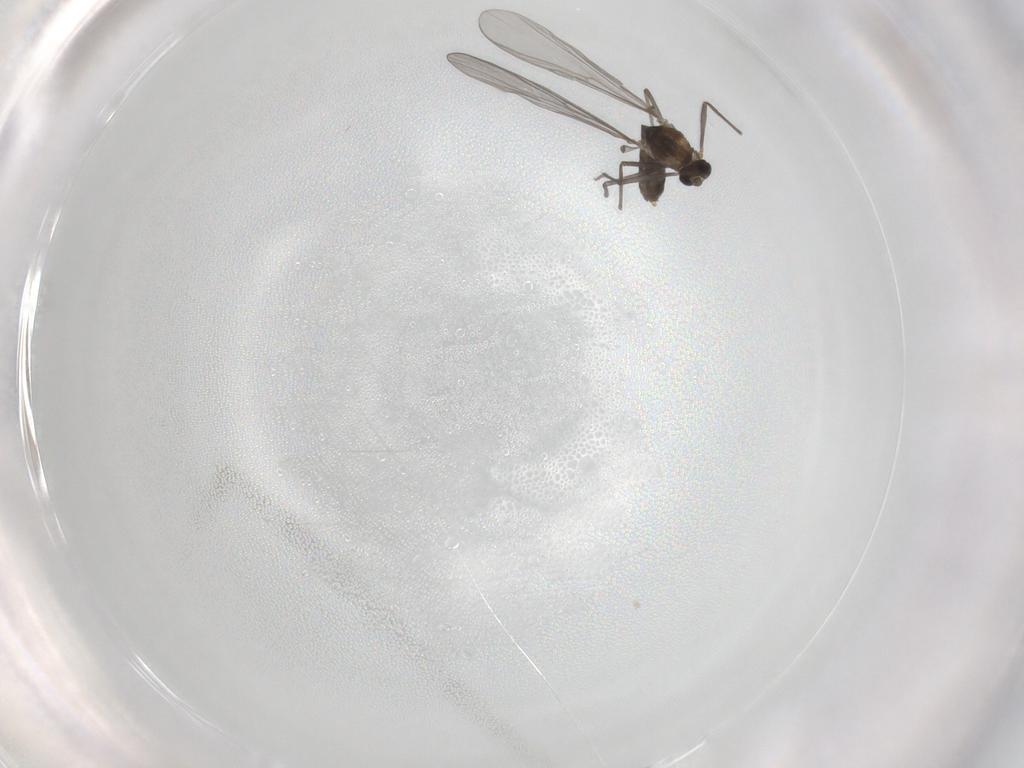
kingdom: Animalia
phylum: Arthropoda
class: Insecta
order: Diptera
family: Chironomidae
